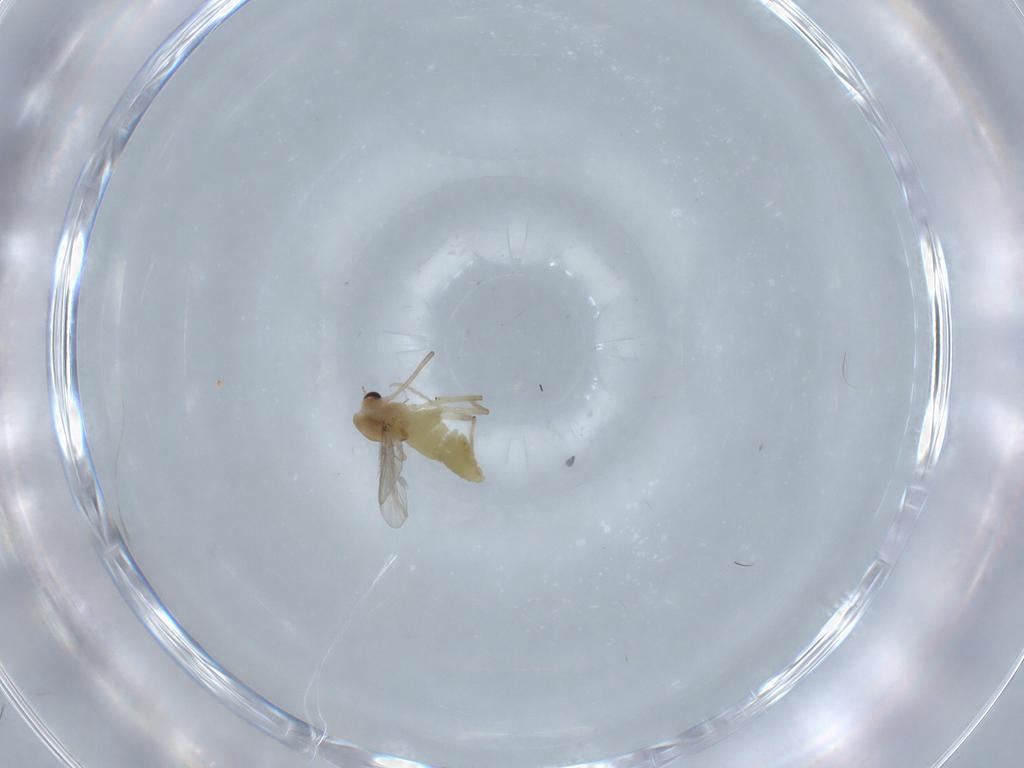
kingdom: Animalia
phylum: Arthropoda
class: Insecta
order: Diptera
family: Chironomidae
